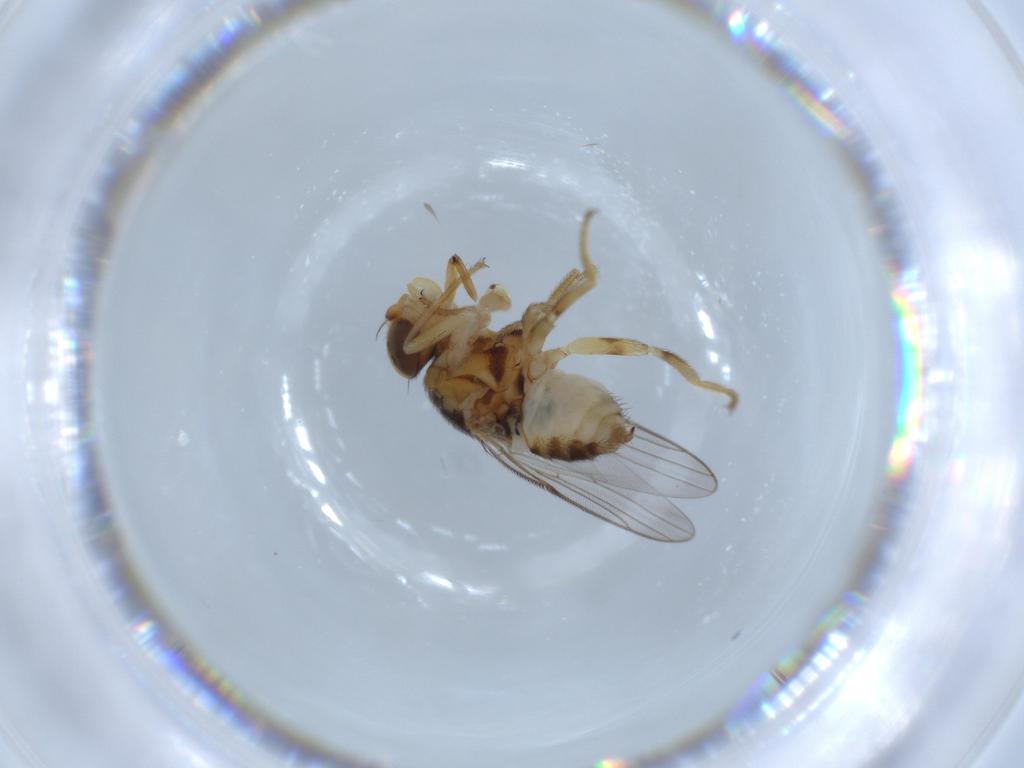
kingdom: Animalia
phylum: Arthropoda
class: Insecta
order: Diptera
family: Chloropidae
